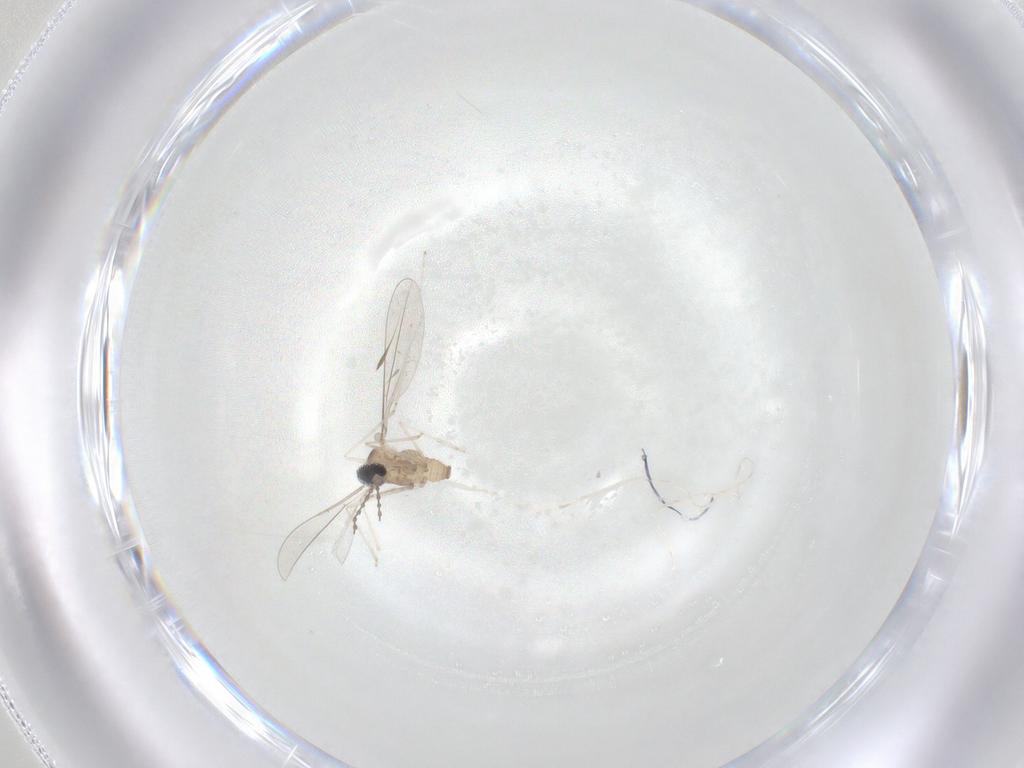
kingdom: Animalia
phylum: Arthropoda
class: Insecta
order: Diptera
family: Cecidomyiidae
